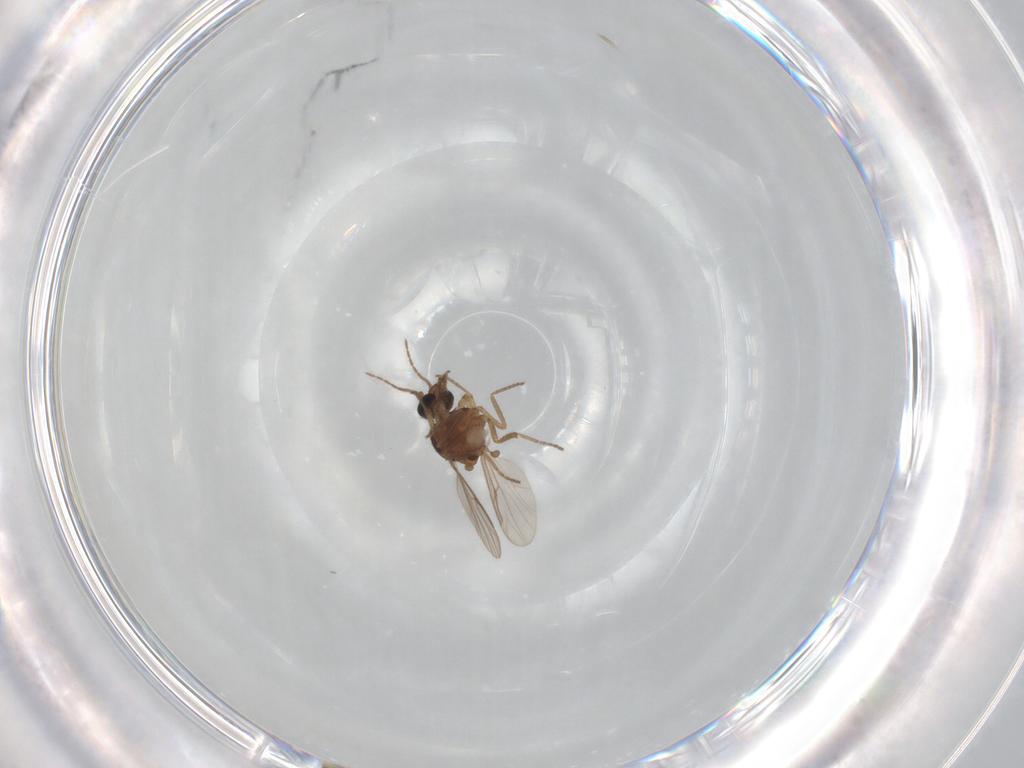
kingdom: Animalia
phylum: Arthropoda
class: Insecta
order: Diptera
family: Ceratopogonidae
